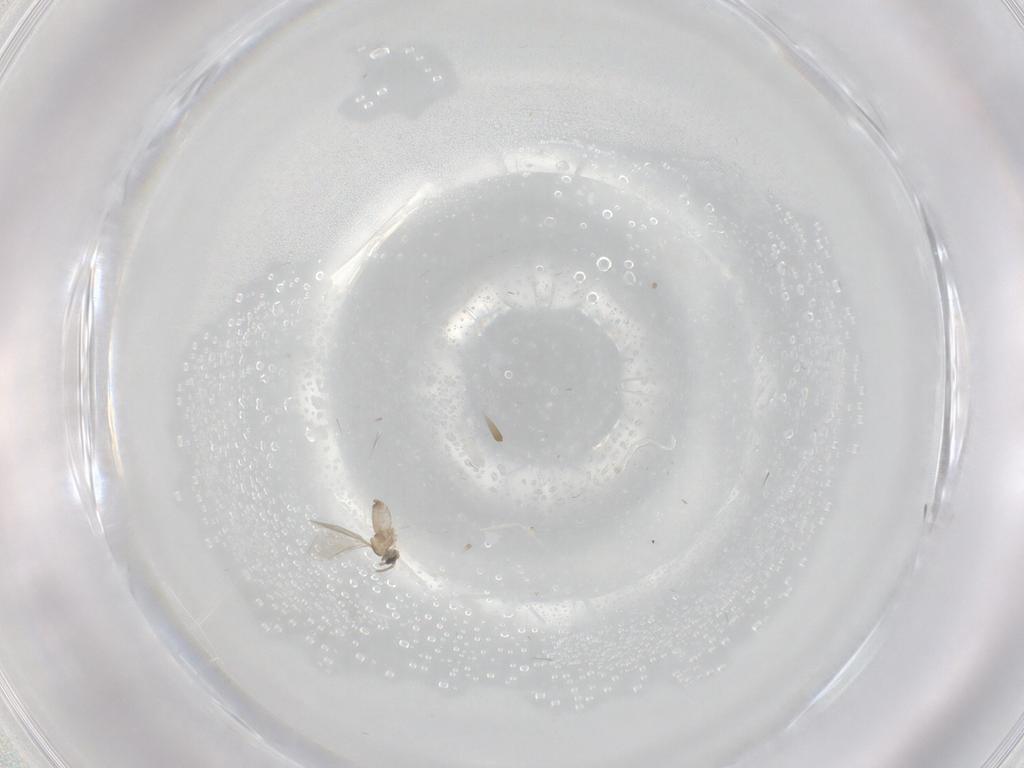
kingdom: Animalia
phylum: Arthropoda
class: Insecta
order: Diptera
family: Cecidomyiidae
